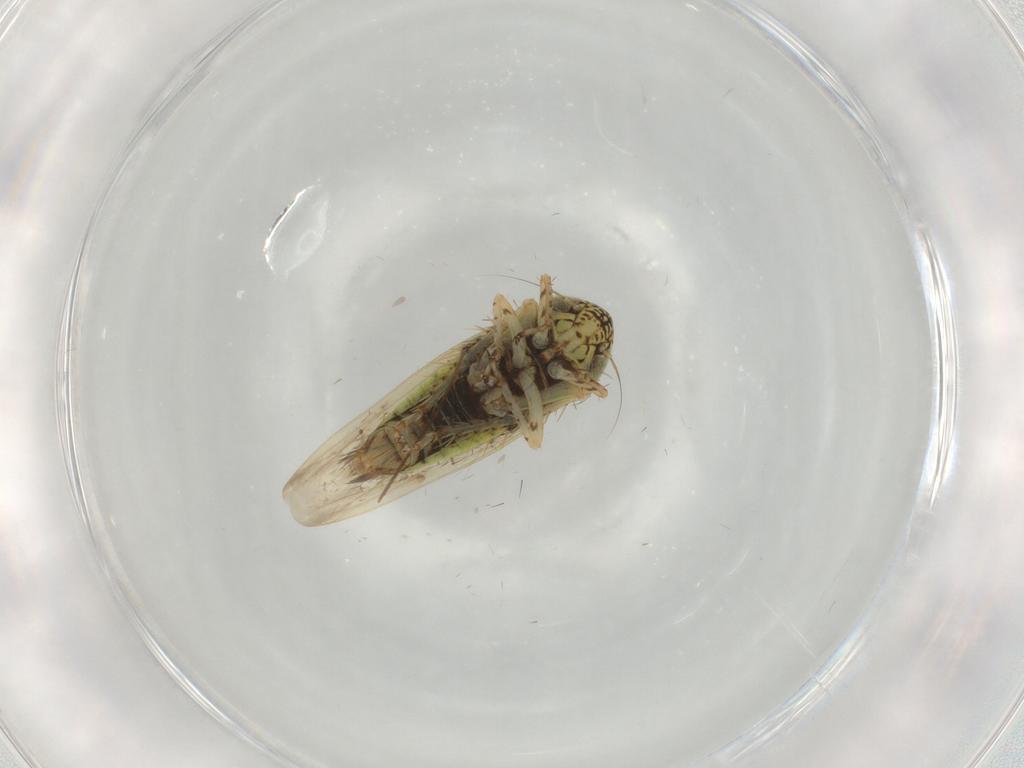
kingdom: Animalia
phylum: Arthropoda
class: Insecta
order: Hemiptera
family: Cicadellidae
